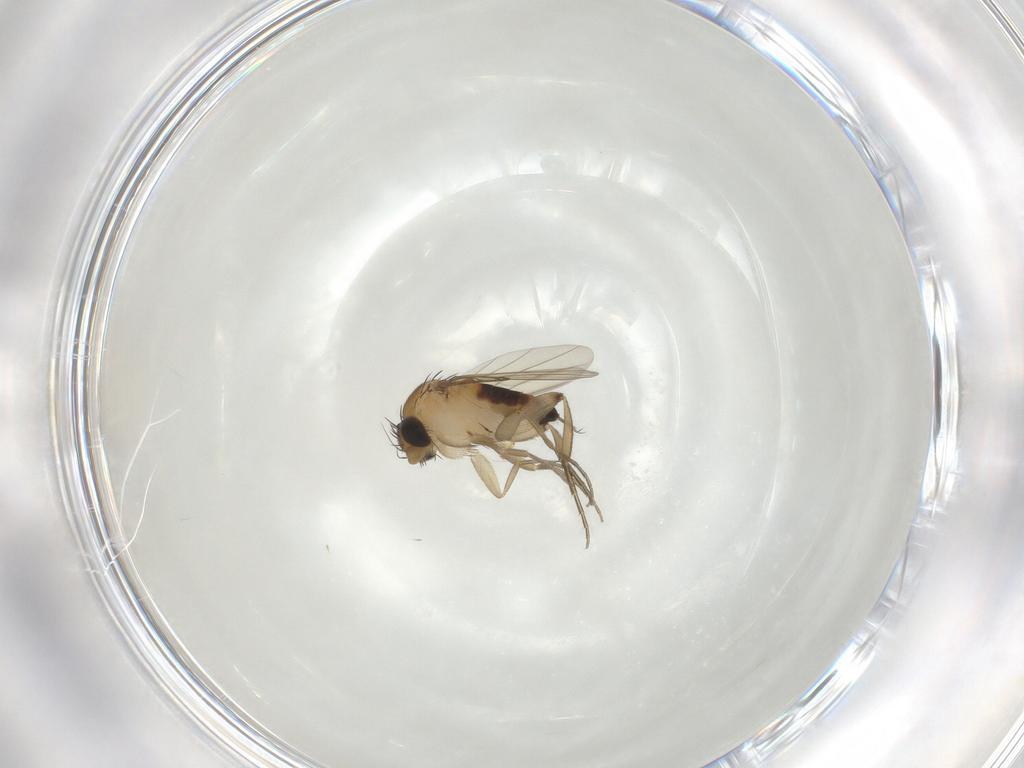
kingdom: Animalia
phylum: Arthropoda
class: Insecta
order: Diptera
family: Phoridae
